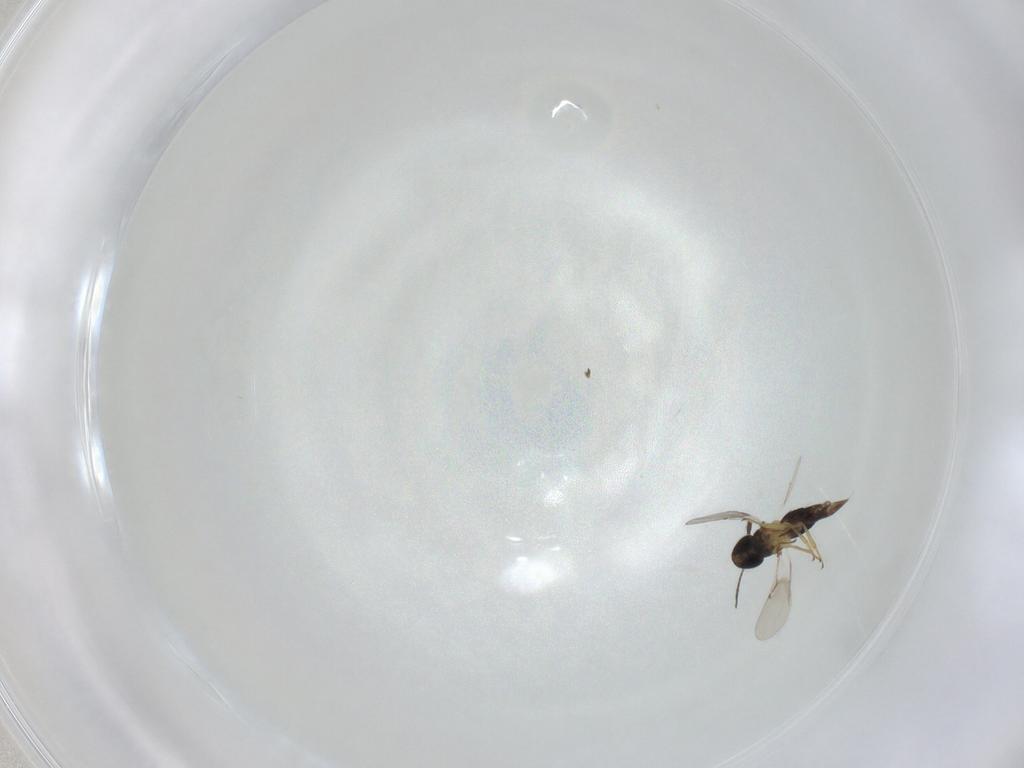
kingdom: Animalia
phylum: Arthropoda
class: Insecta
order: Hymenoptera
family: Encyrtidae
